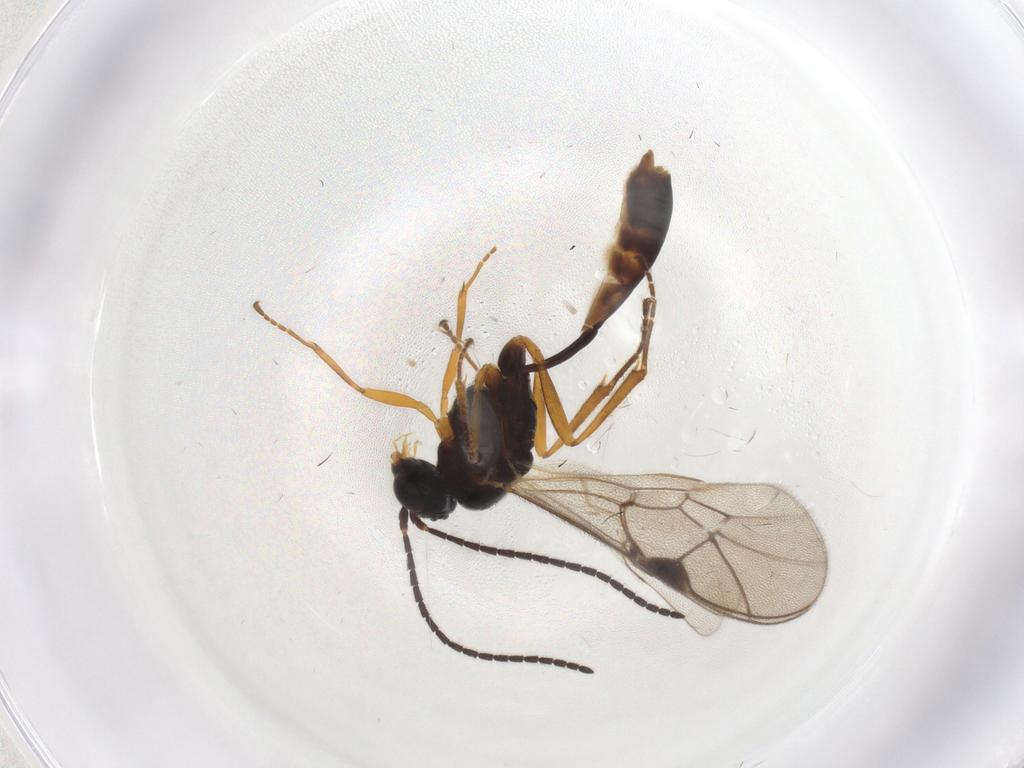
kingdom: Animalia
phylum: Arthropoda
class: Insecta
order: Hymenoptera
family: Ichneumonidae
